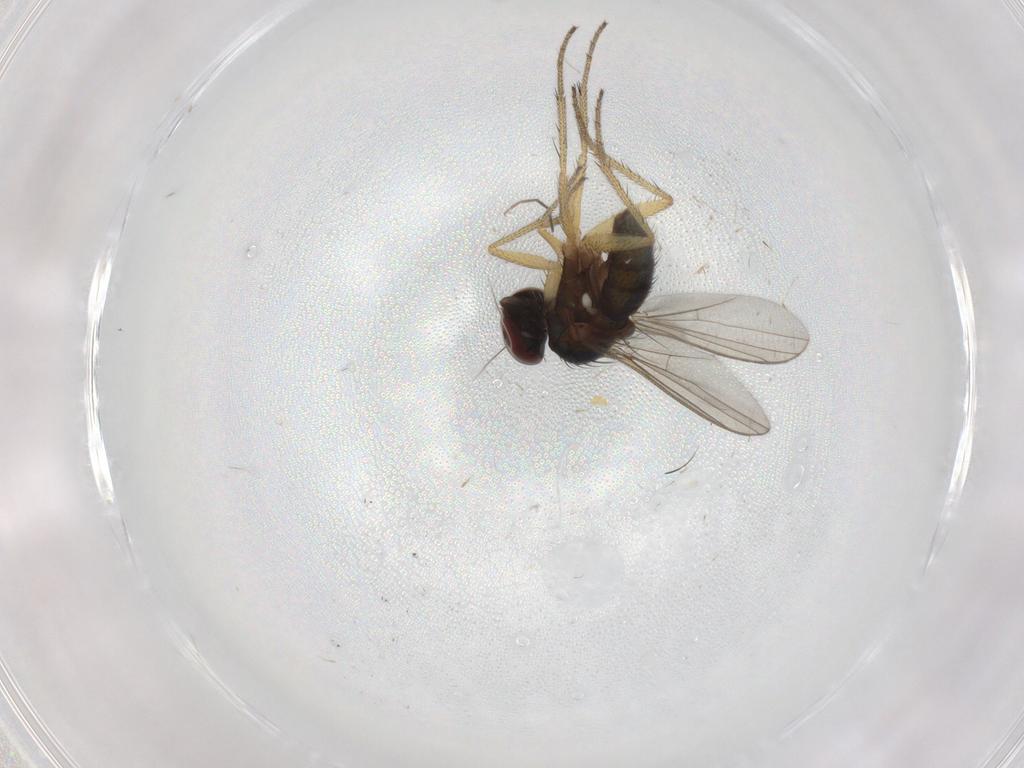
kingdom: Animalia
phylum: Arthropoda
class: Insecta
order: Diptera
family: Dolichopodidae
